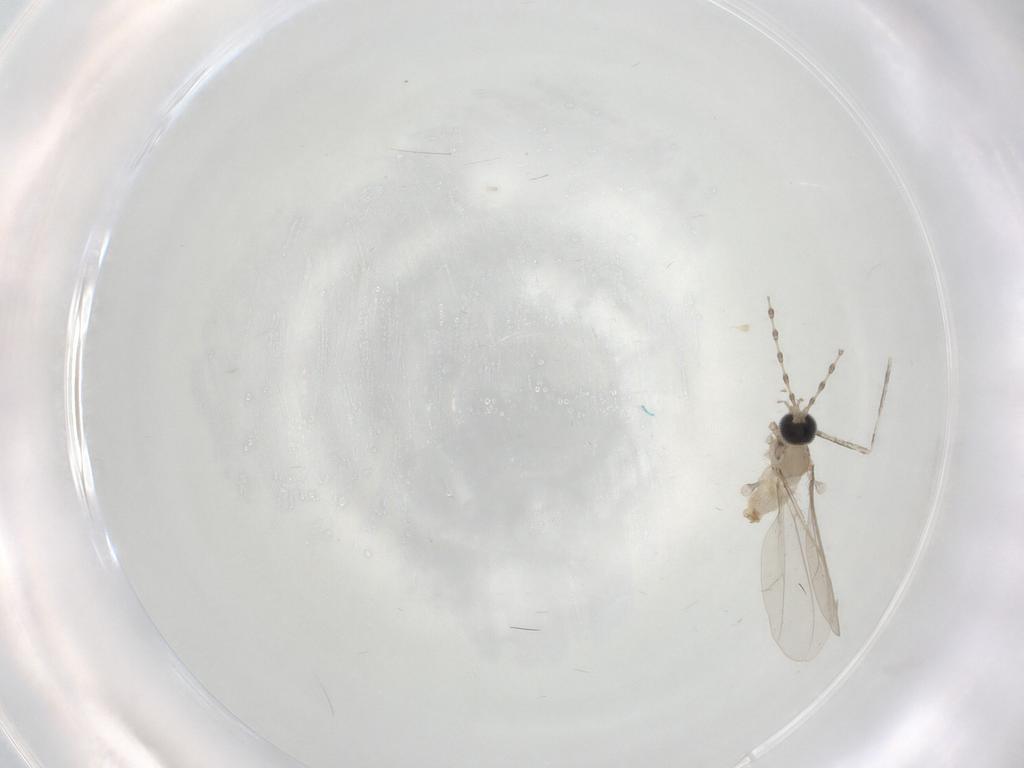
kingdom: Animalia
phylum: Arthropoda
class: Insecta
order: Diptera
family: Cecidomyiidae
